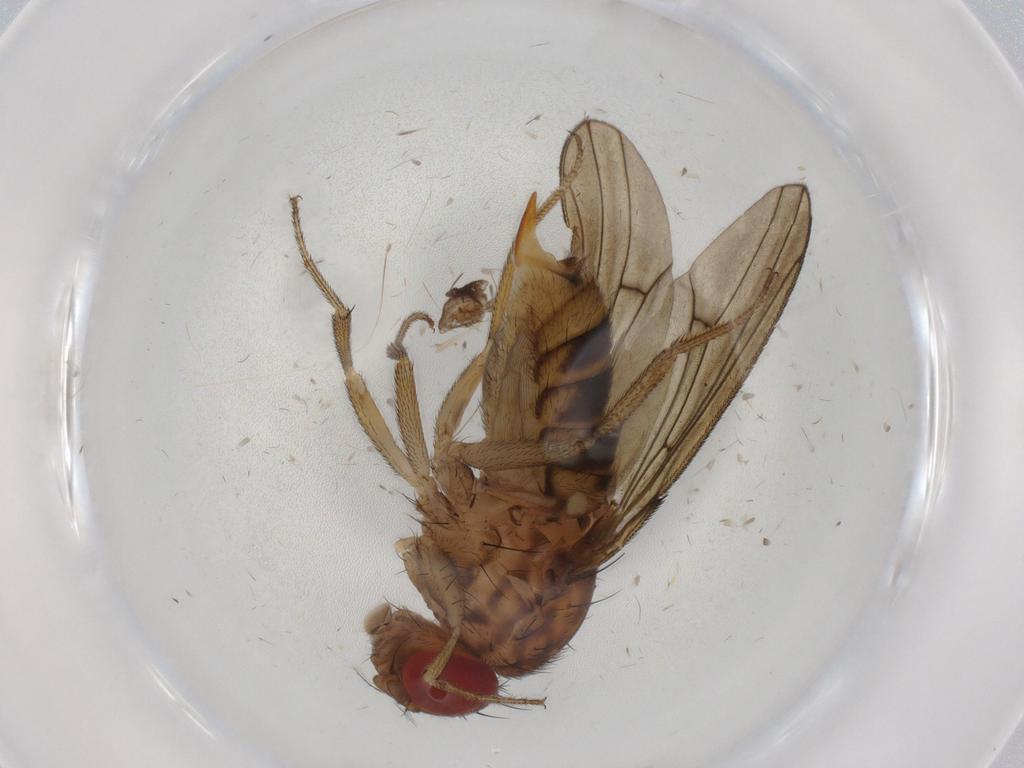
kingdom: Animalia
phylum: Arthropoda
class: Insecta
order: Diptera
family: Drosophilidae
